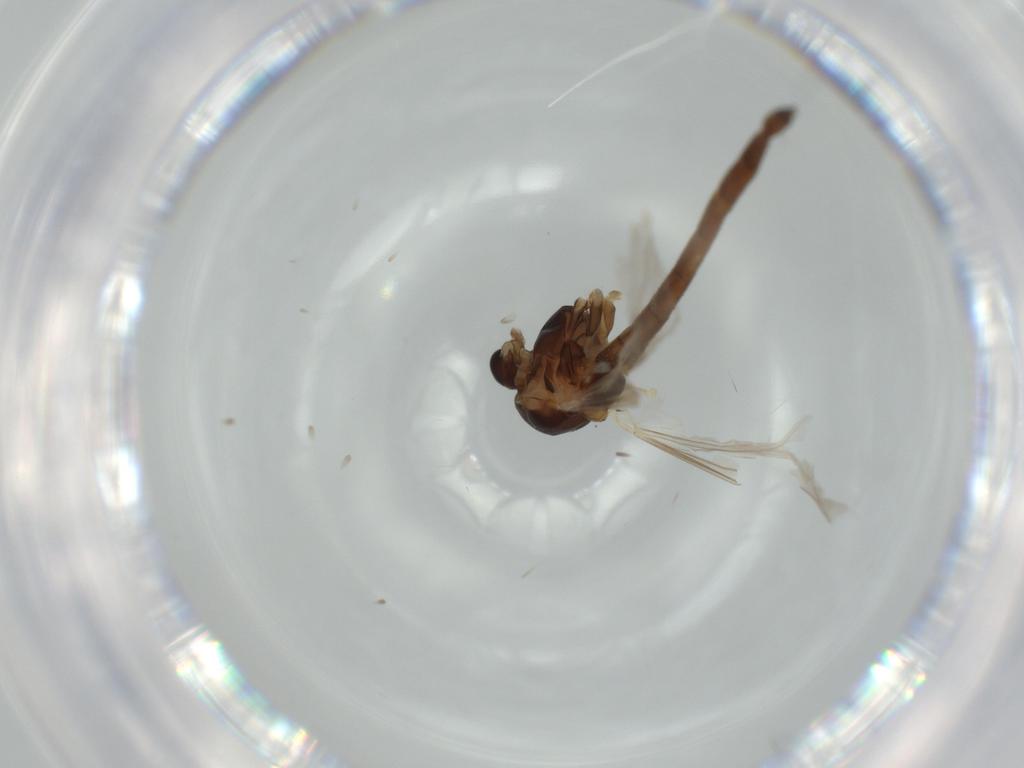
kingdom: Animalia
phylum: Arthropoda
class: Insecta
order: Diptera
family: Chironomidae
